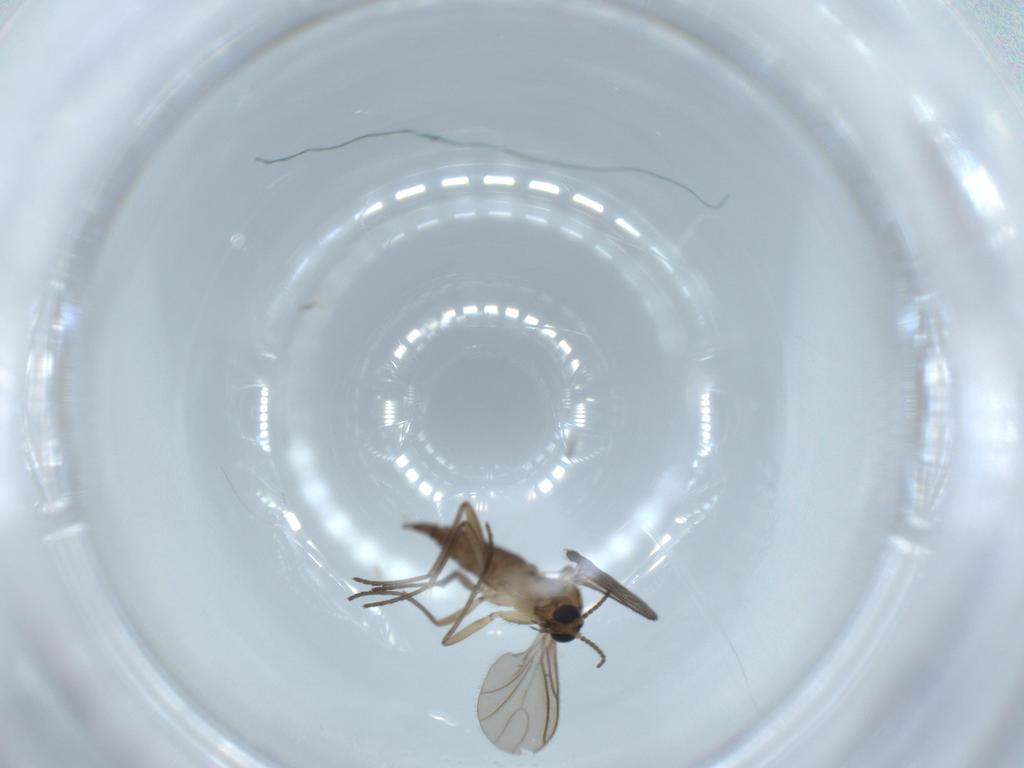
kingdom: Animalia
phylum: Arthropoda
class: Insecta
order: Diptera
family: Sciaridae
